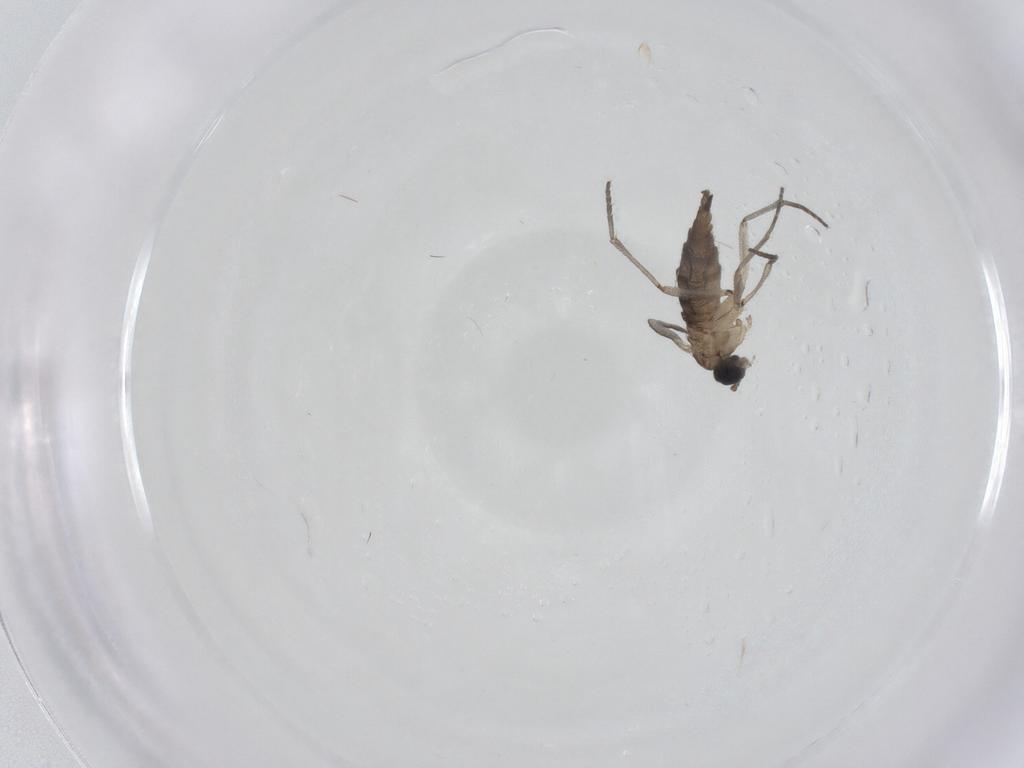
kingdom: Animalia
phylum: Arthropoda
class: Insecta
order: Diptera
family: Sciaridae
